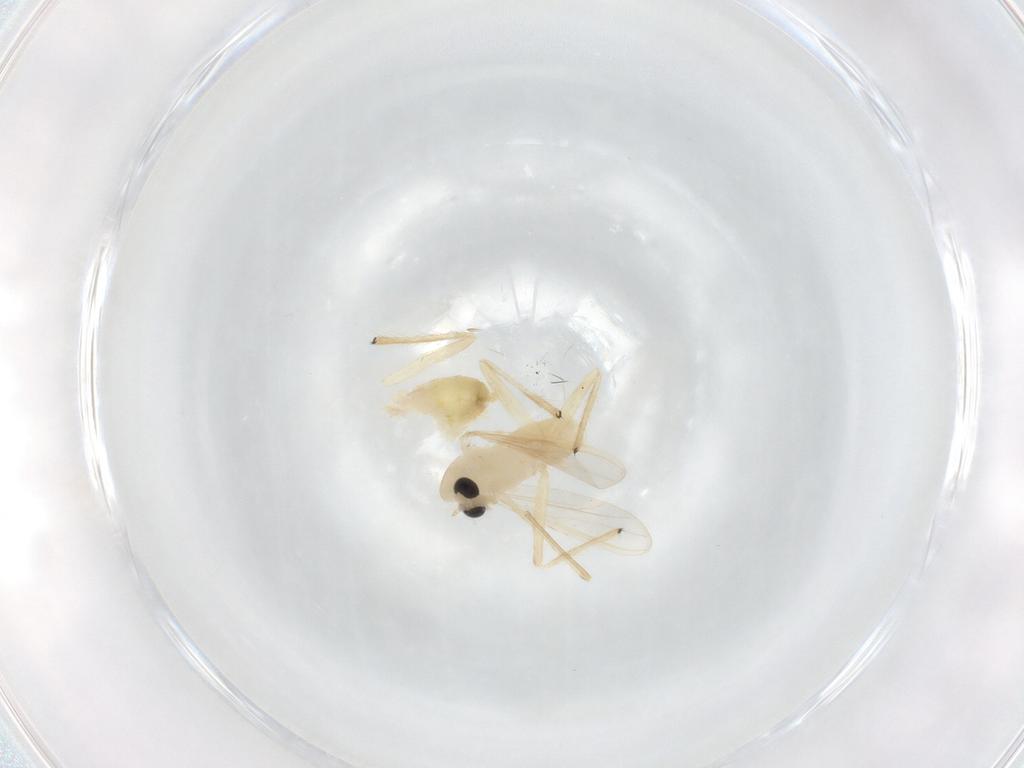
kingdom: Animalia
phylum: Arthropoda
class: Insecta
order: Diptera
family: Chironomidae
